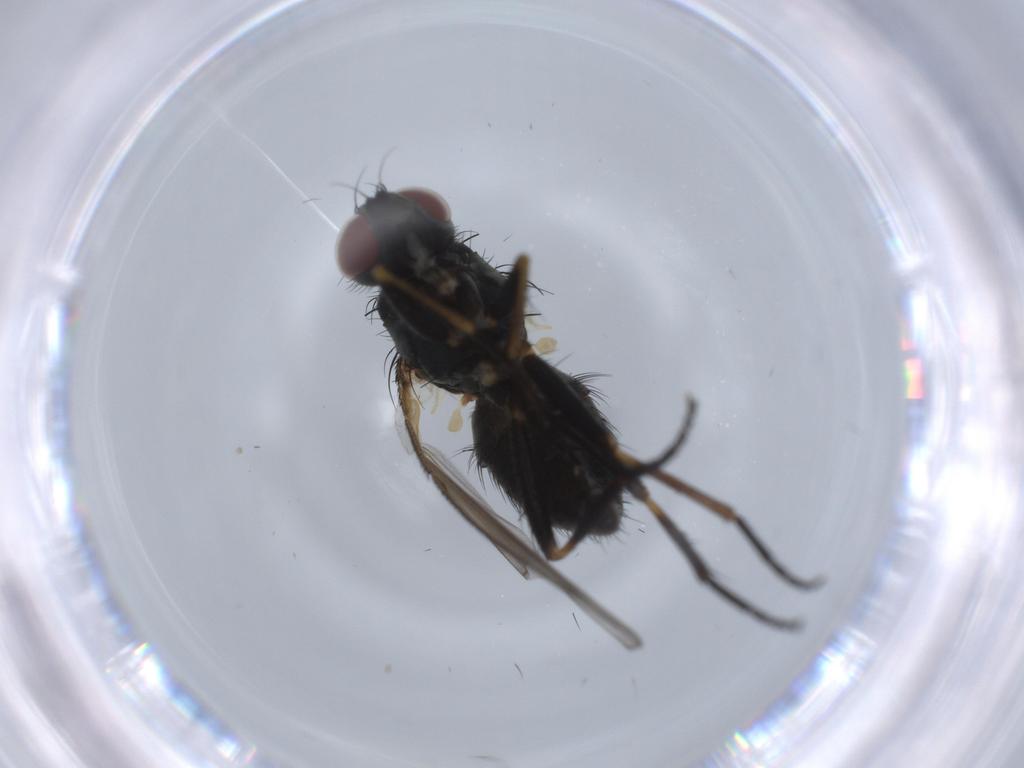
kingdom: Animalia
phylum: Arthropoda
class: Insecta
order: Diptera
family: Muscidae
